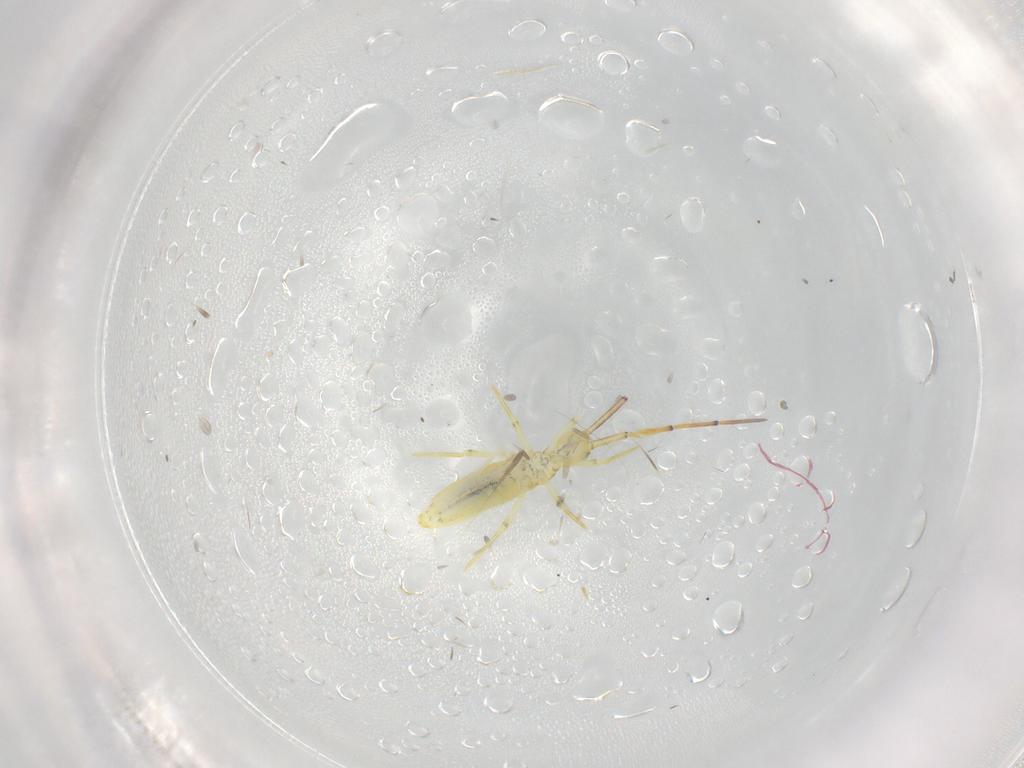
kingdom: Animalia
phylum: Arthropoda
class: Collembola
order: Entomobryomorpha
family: Paronellidae
